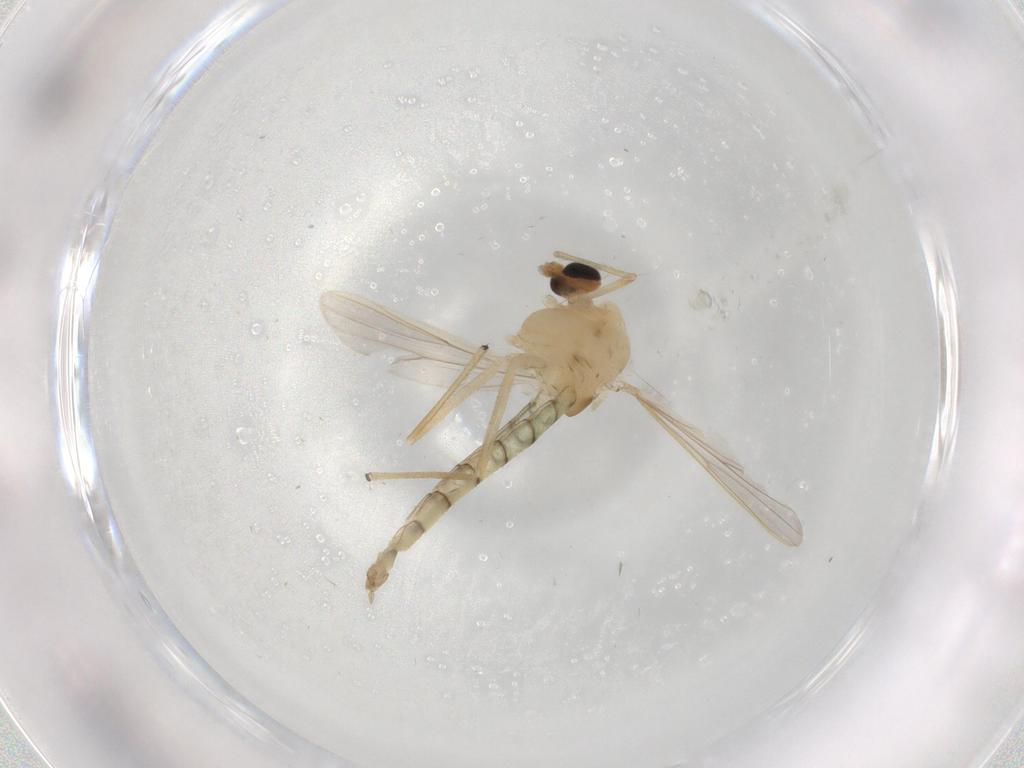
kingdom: Animalia
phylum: Arthropoda
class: Insecta
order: Diptera
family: Chironomidae
